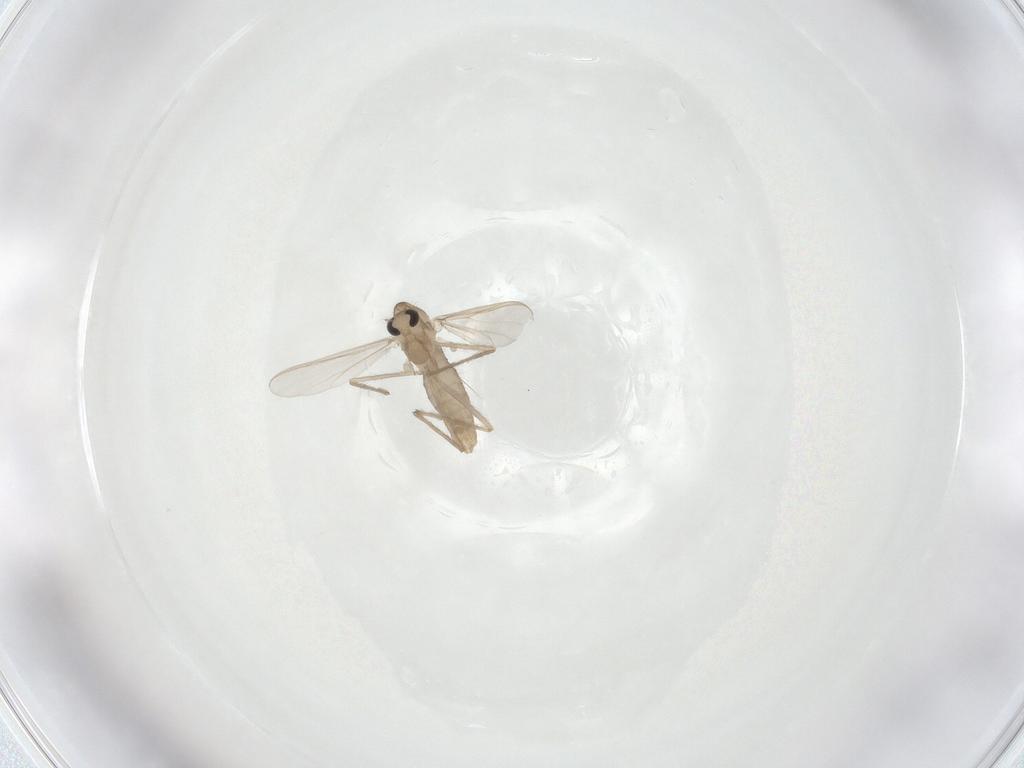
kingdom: Animalia
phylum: Arthropoda
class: Insecta
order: Diptera
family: Chironomidae
